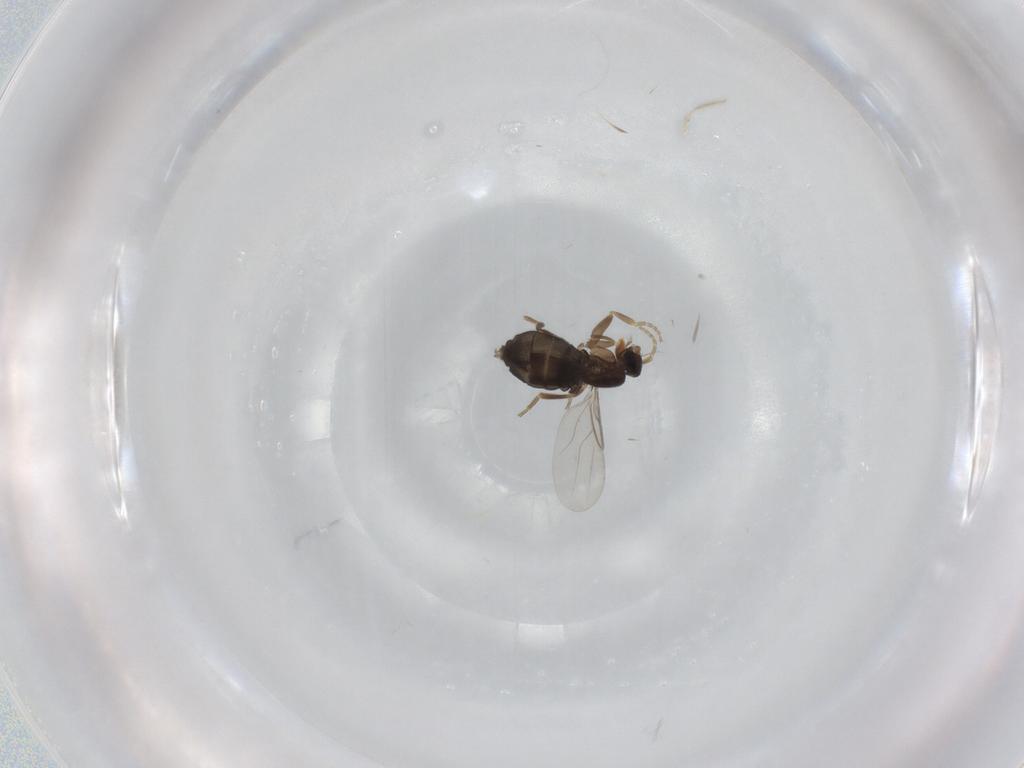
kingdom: Animalia
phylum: Arthropoda
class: Insecta
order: Diptera
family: Phoridae
